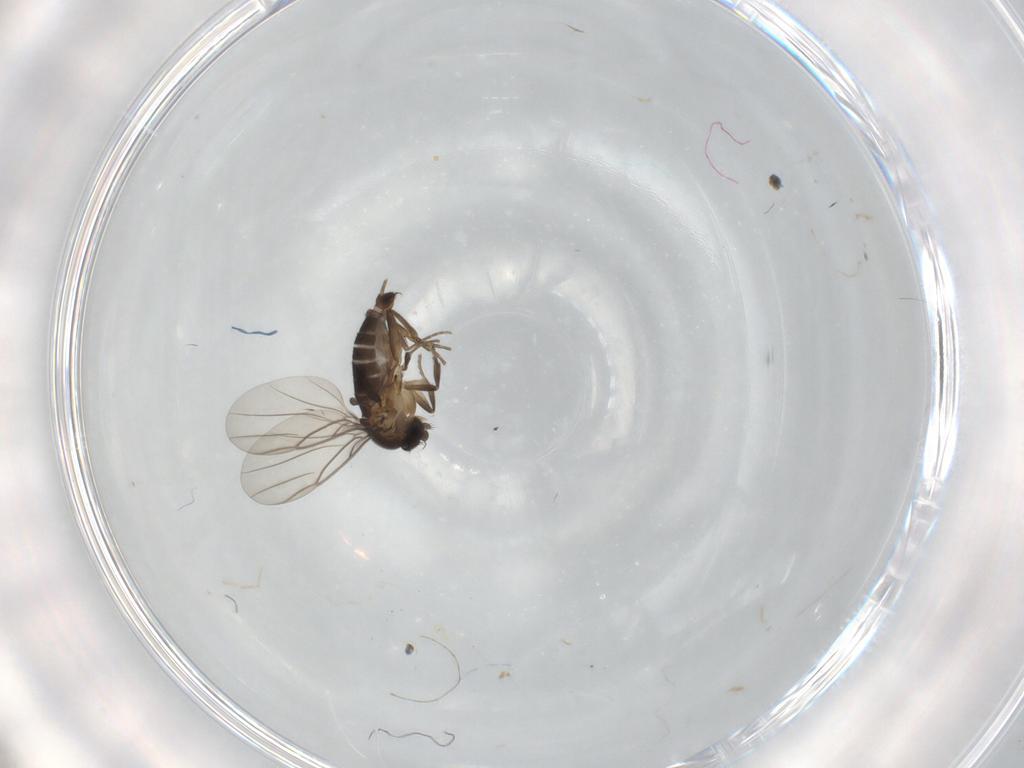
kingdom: Animalia
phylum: Arthropoda
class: Insecta
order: Diptera
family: Phoridae
